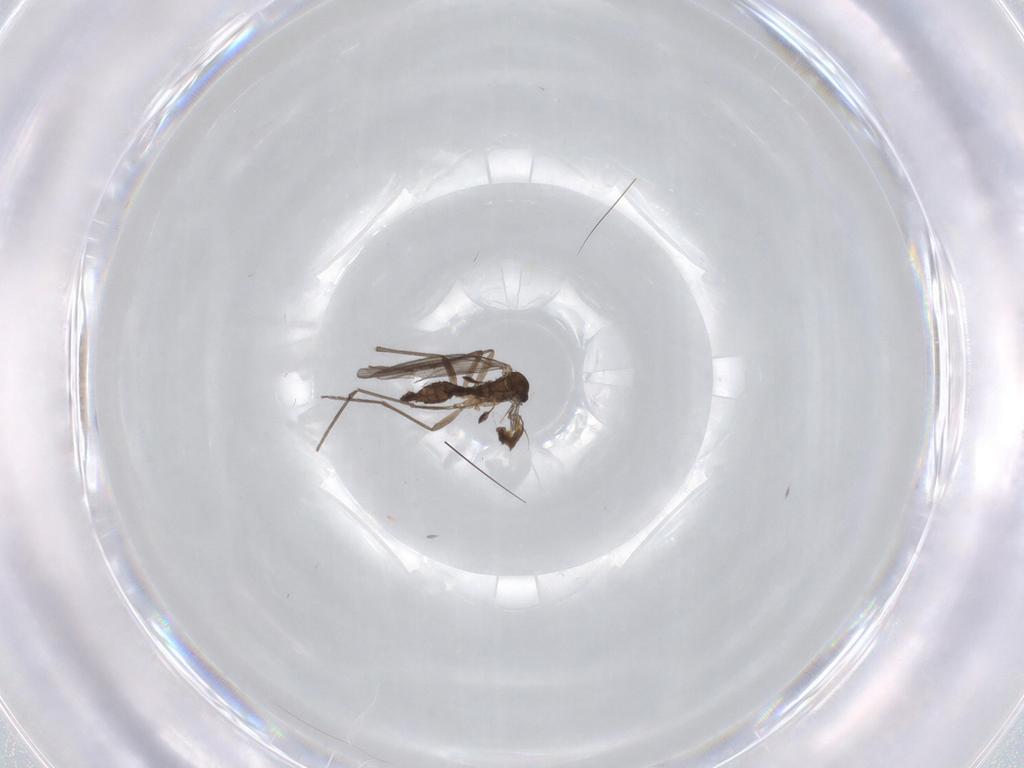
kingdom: Animalia
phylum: Arthropoda
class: Insecta
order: Diptera
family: Sciaridae
